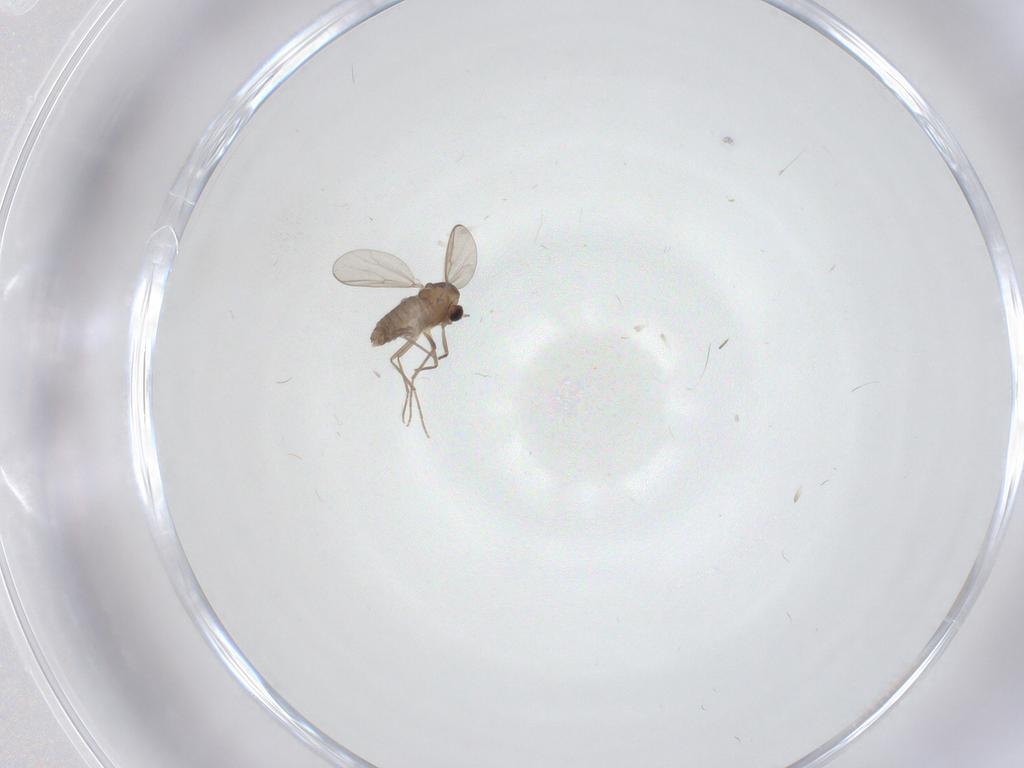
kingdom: Animalia
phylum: Arthropoda
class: Insecta
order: Diptera
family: Chironomidae
